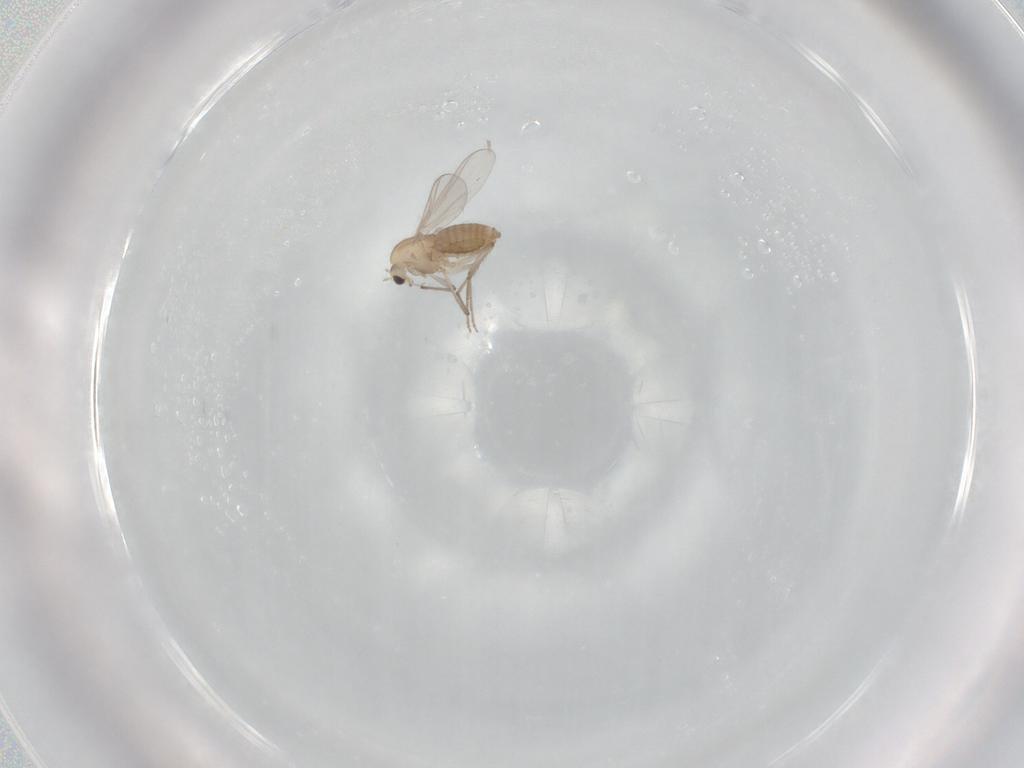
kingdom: Animalia
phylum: Arthropoda
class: Insecta
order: Diptera
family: Chironomidae
